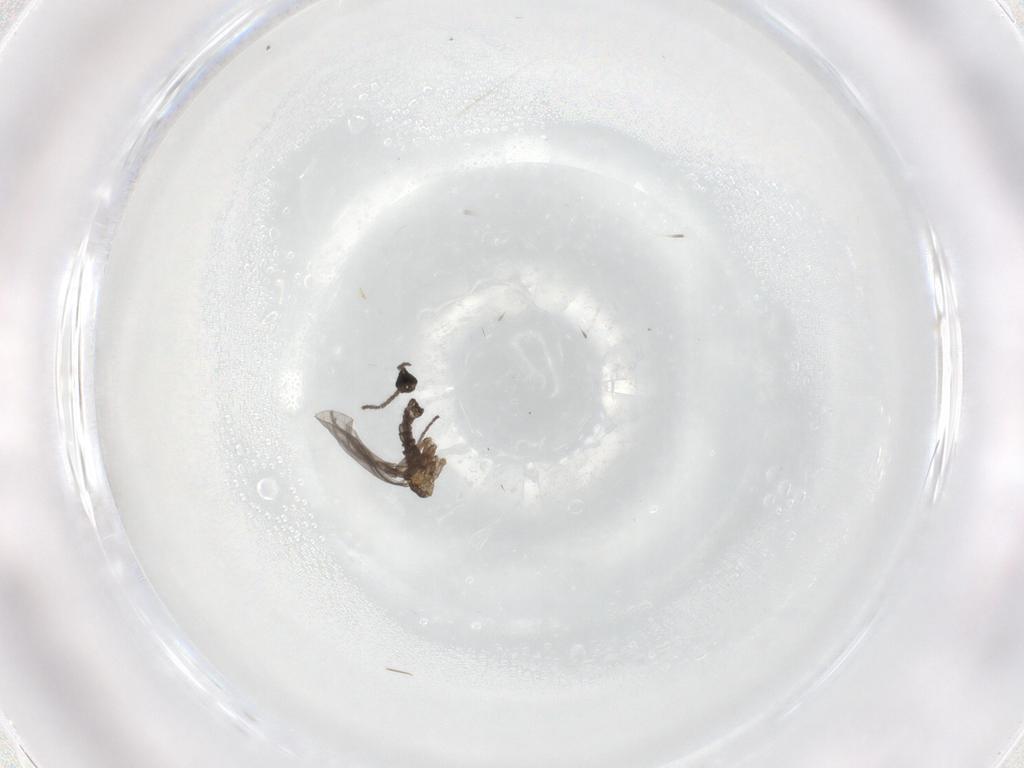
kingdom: Animalia
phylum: Arthropoda
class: Insecta
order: Diptera
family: Sciaridae
